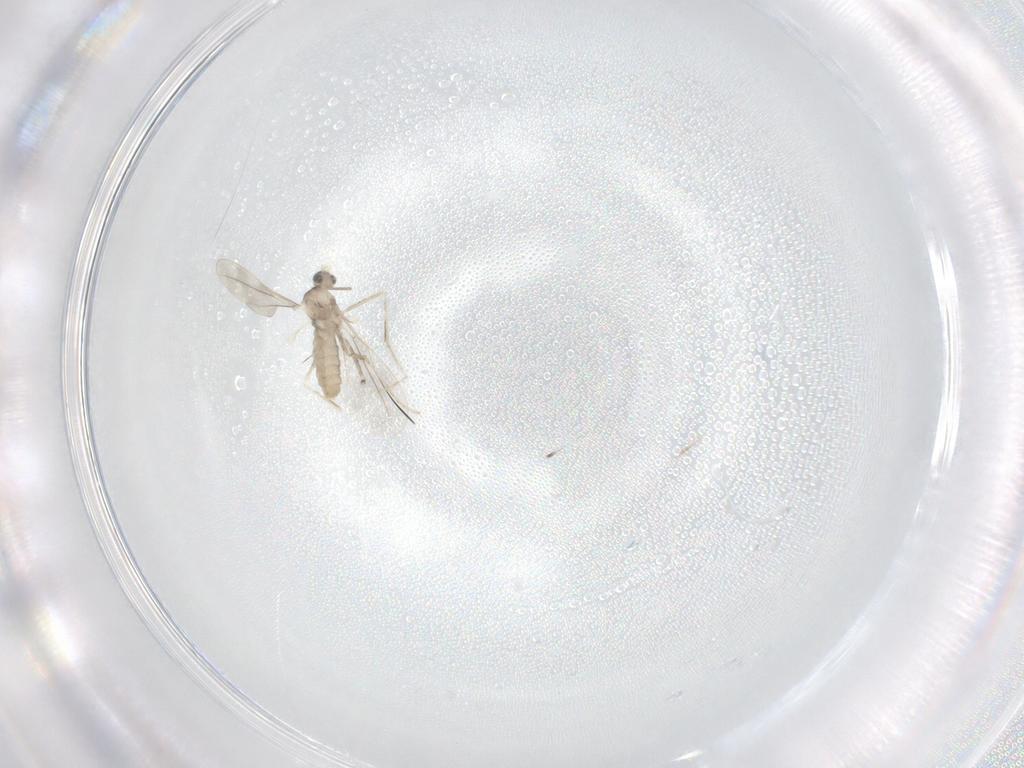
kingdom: Animalia
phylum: Arthropoda
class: Insecta
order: Diptera
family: Cecidomyiidae
